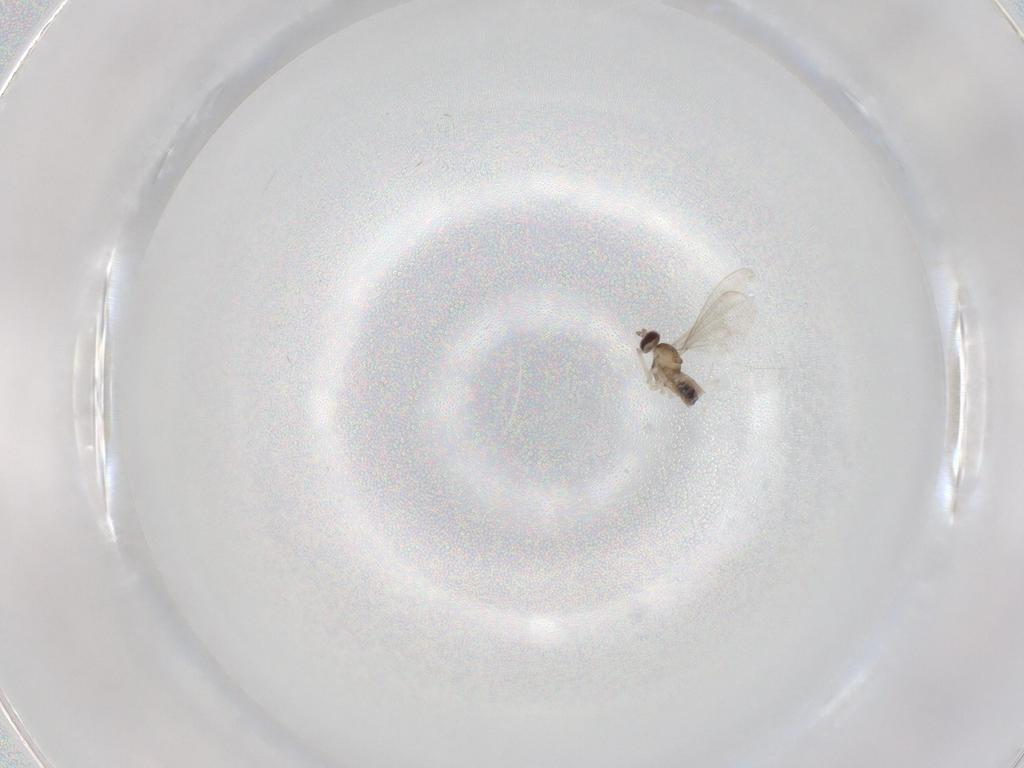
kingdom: Animalia
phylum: Arthropoda
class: Insecta
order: Diptera
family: Cecidomyiidae
